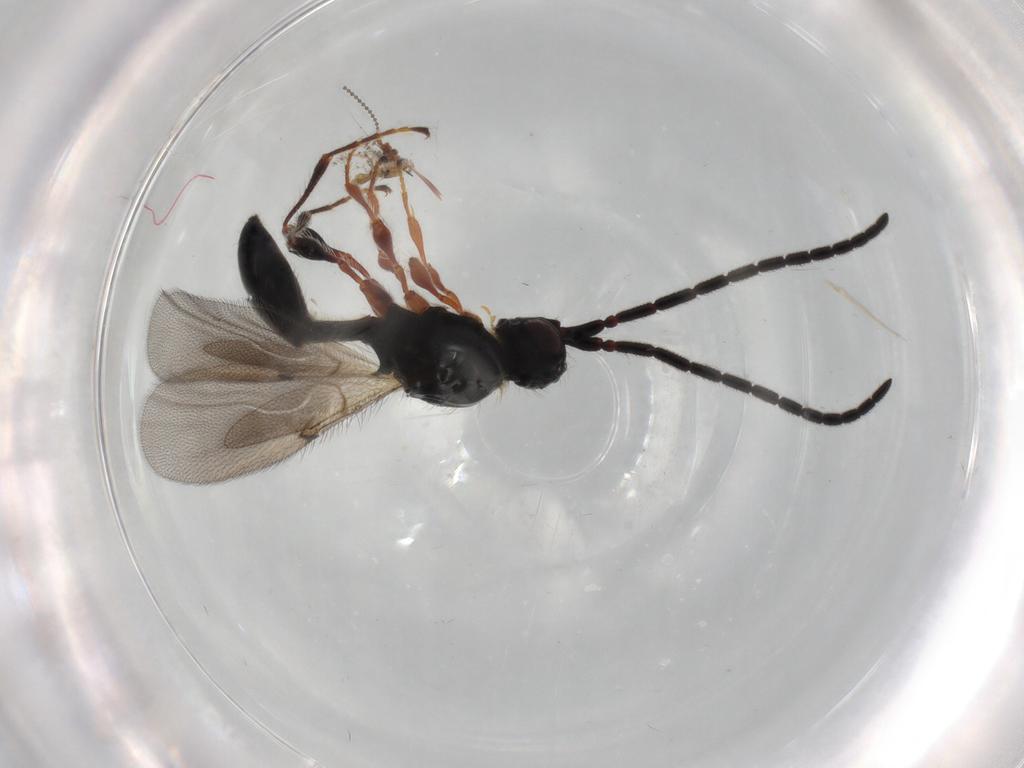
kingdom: Animalia
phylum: Arthropoda
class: Insecta
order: Hymenoptera
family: Diapriidae
